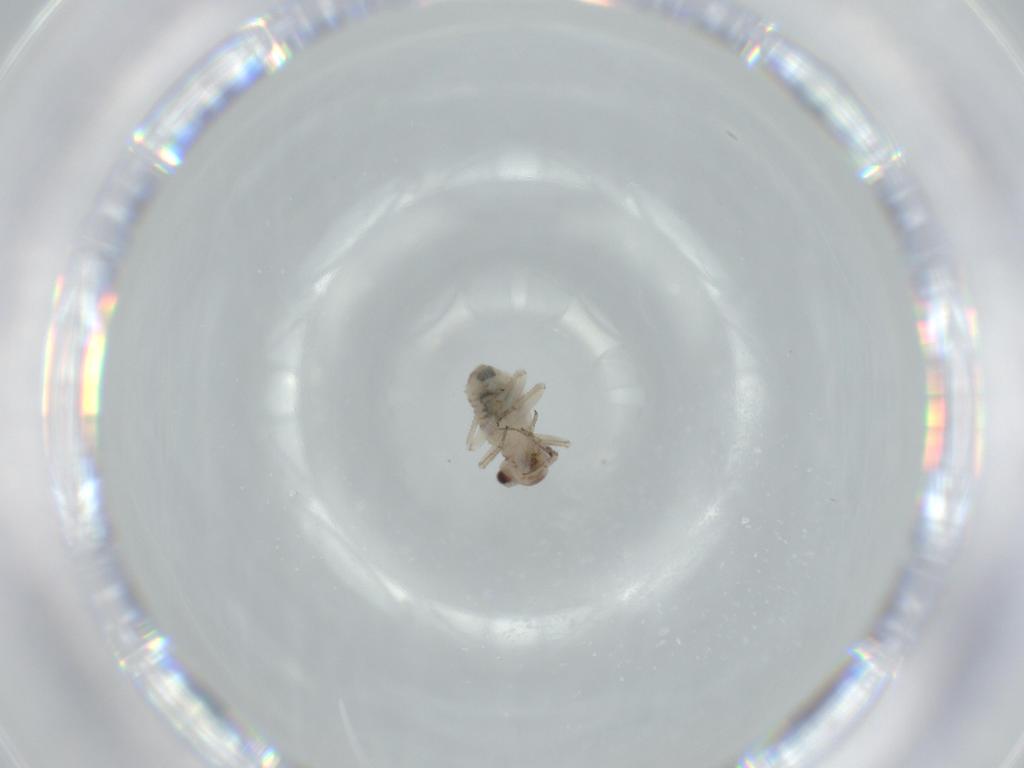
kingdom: Animalia
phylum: Arthropoda
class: Insecta
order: Psocodea
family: Psocidae
